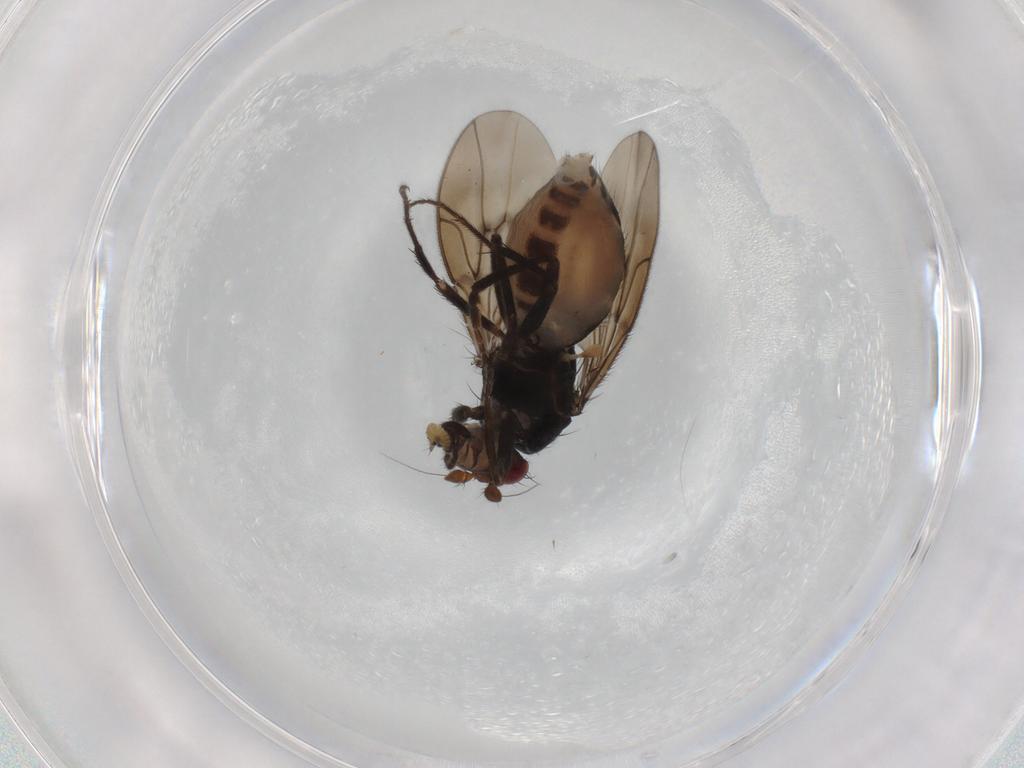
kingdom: Animalia
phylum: Arthropoda
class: Insecta
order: Diptera
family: Sphaeroceridae
